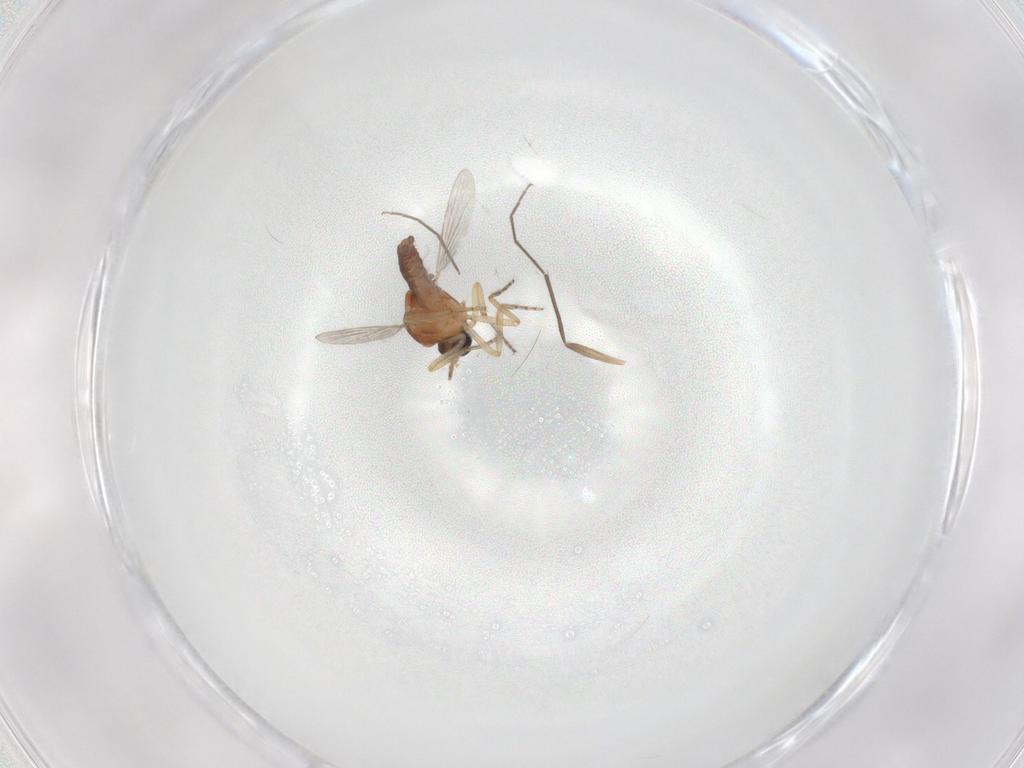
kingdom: Animalia
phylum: Arthropoda
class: Insecta
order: Diptera
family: Ceratopogonidae
